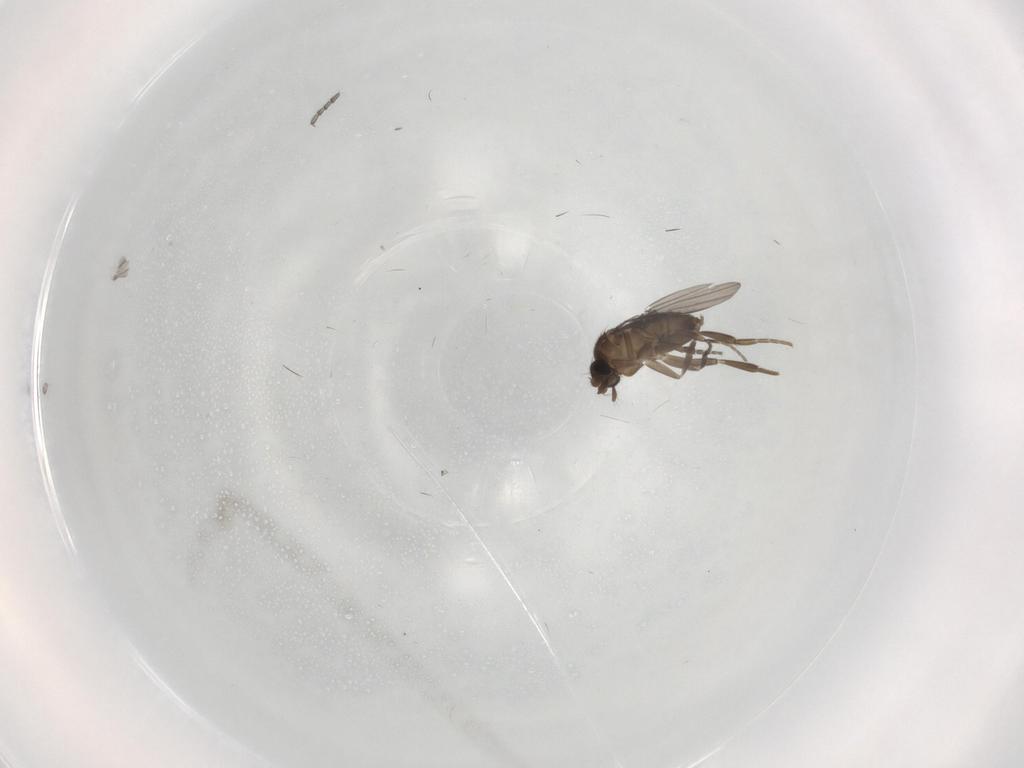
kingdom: Animalia
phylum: Arthropoda
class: Insecta
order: Diptera
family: Phoridae
